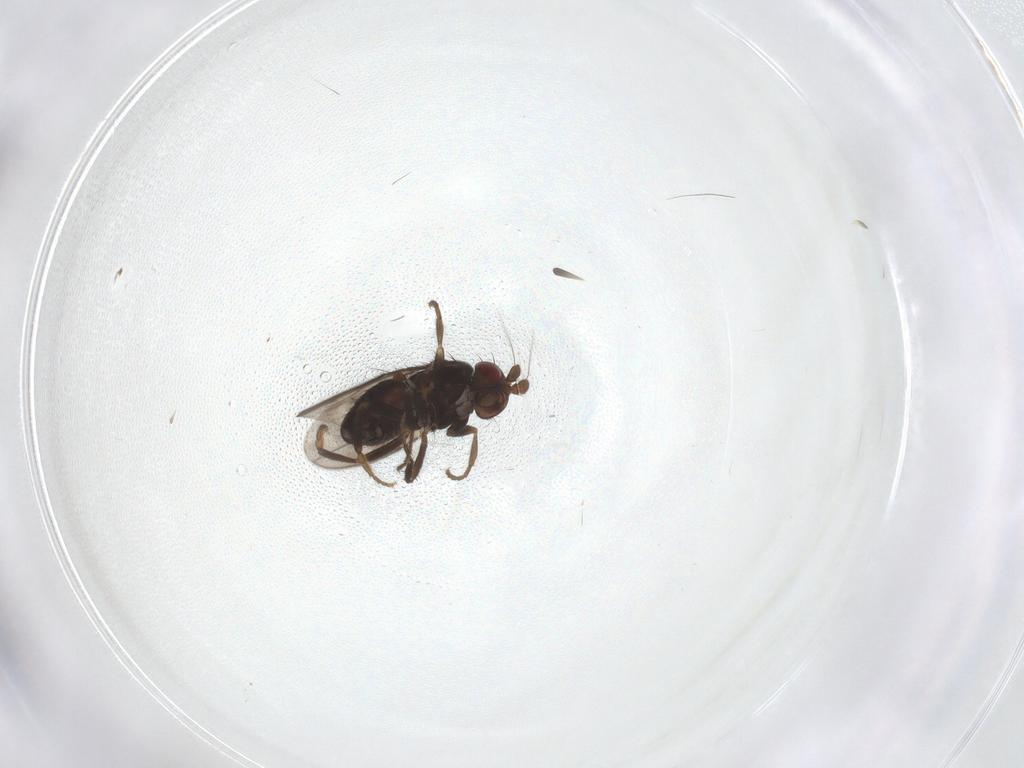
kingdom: Animalia
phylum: Arthropoda
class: Insecta
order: Diptera
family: Sphaeroceridae
